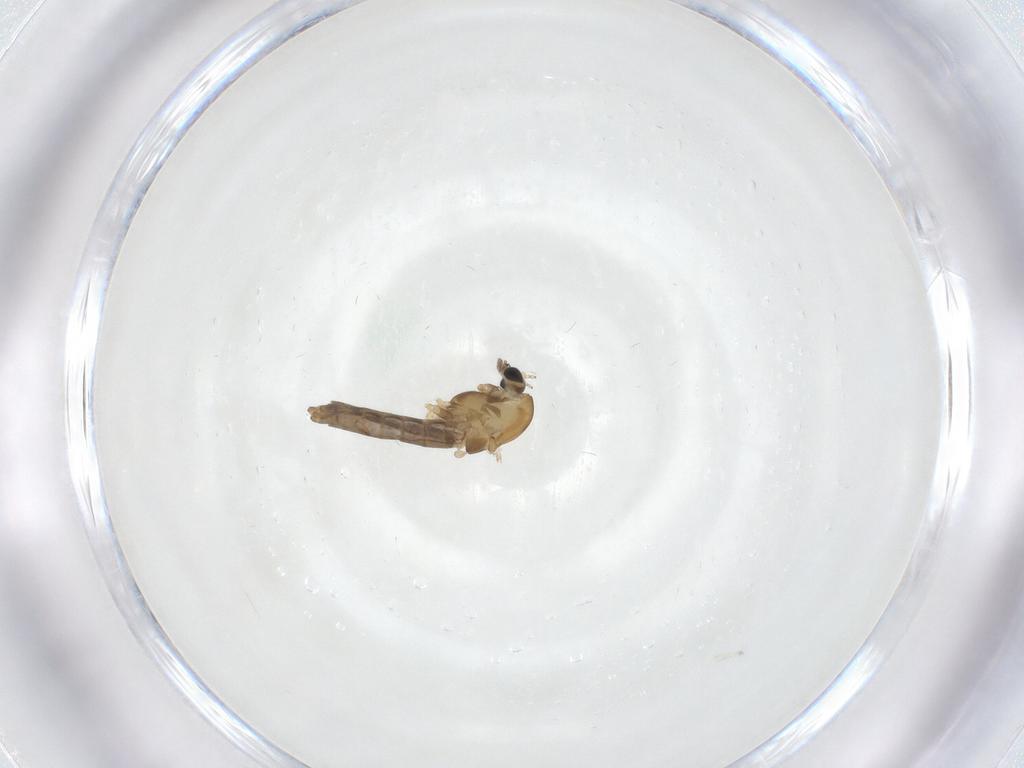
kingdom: Animalia
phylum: Arthropoda
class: Insecta
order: Diptera
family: Chironomidae
